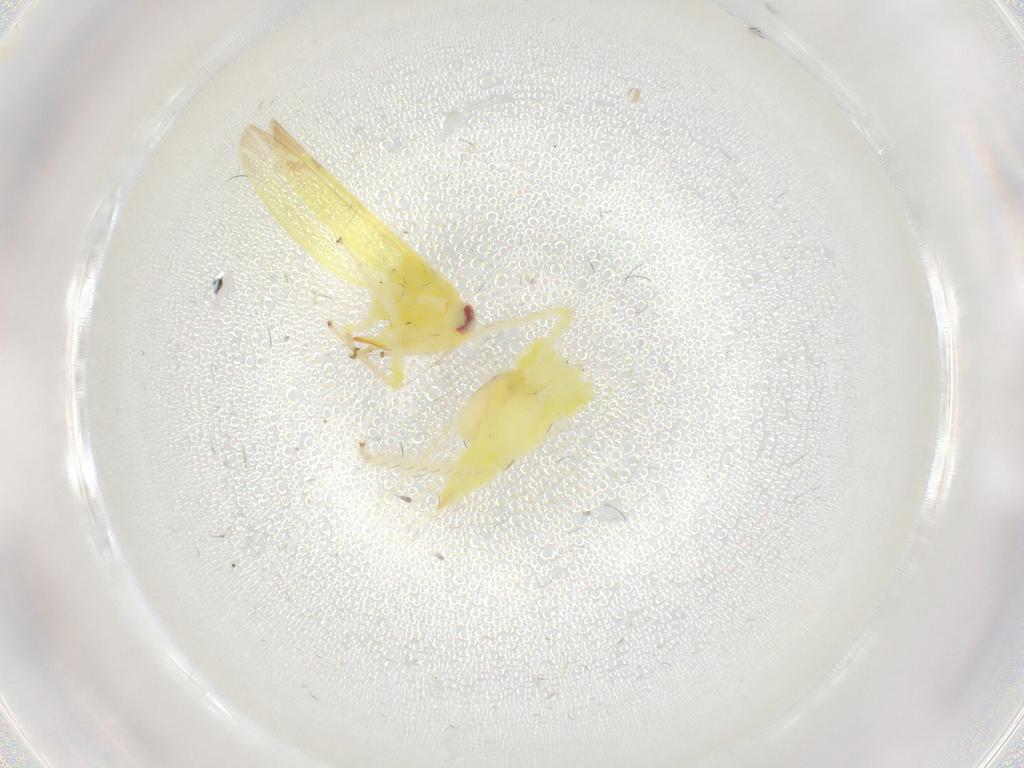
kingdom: Animalia
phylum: Arthropoda
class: Insecta
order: Hemiptera
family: Cicadellidae
